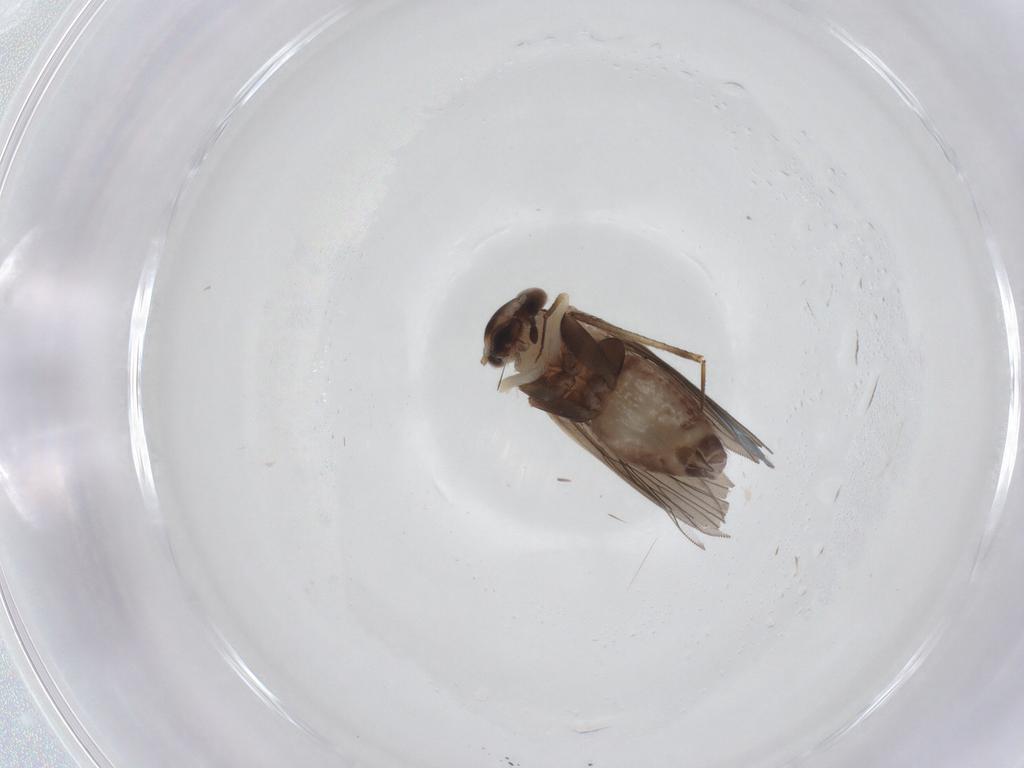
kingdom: Animalia
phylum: Arthropoda
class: Insecta
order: Psocodea
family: Lepidopsocidae
